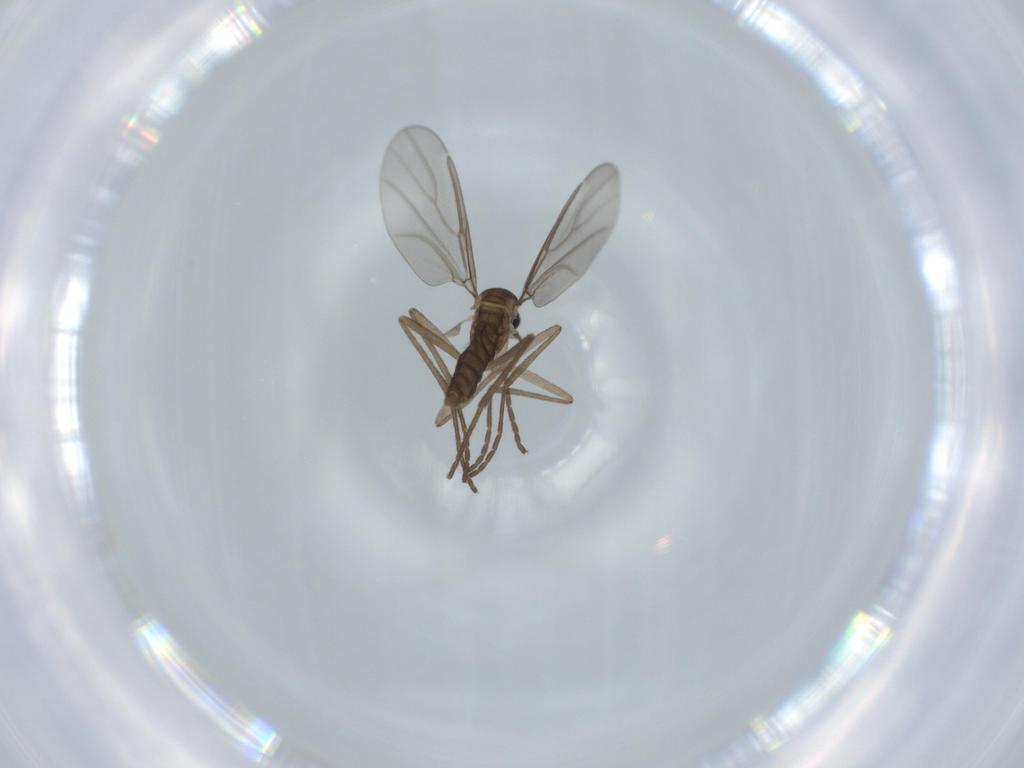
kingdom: Animalia
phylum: Arthropoda
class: Insecta
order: Diptera
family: Cecidomyiidae
